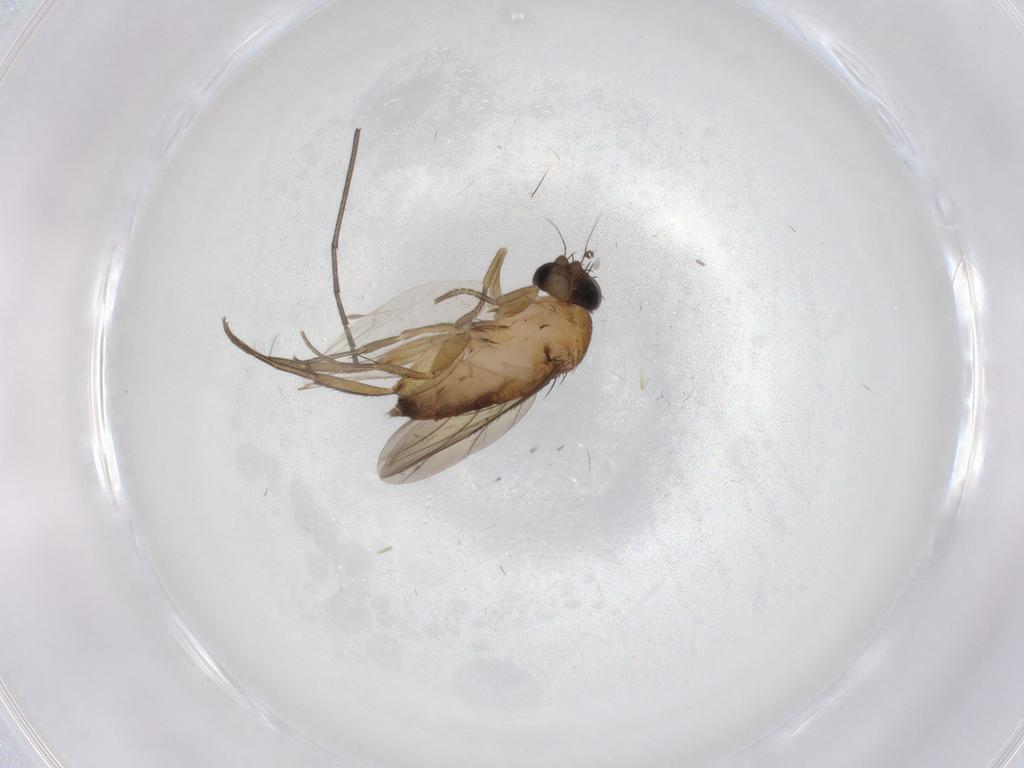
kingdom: Animalia
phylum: Arthropoda
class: Insecta
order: Diptera
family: Phoridae
